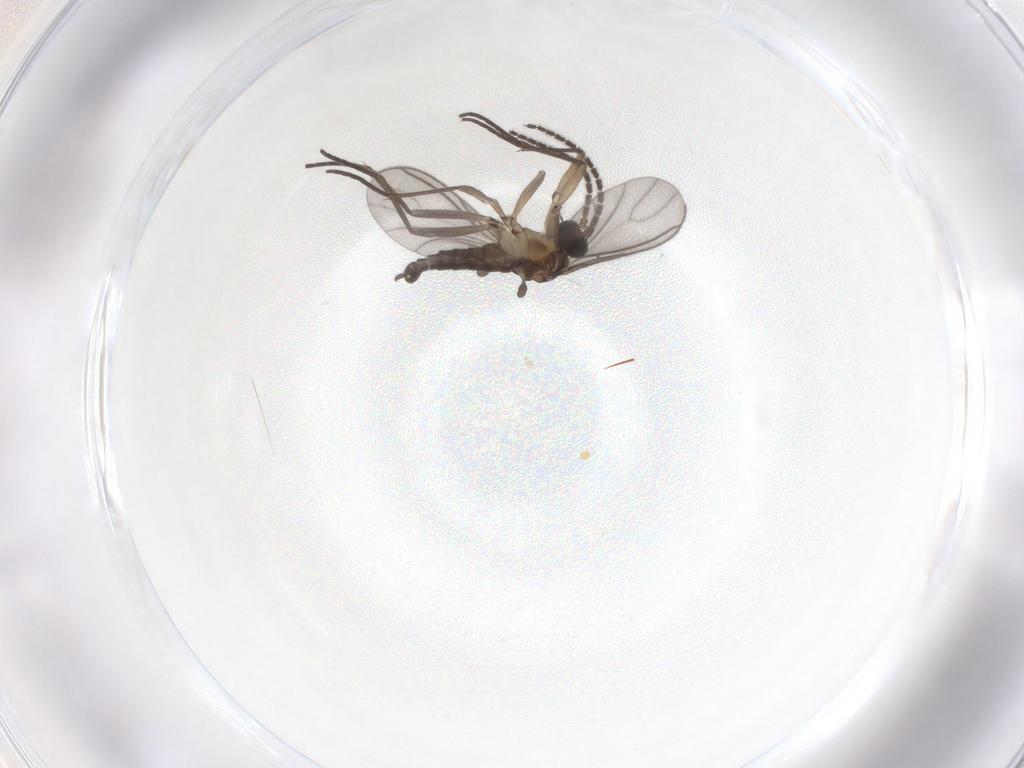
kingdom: Animalia
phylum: Arthropoda
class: Insecta
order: Diptera
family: Sciaridae
